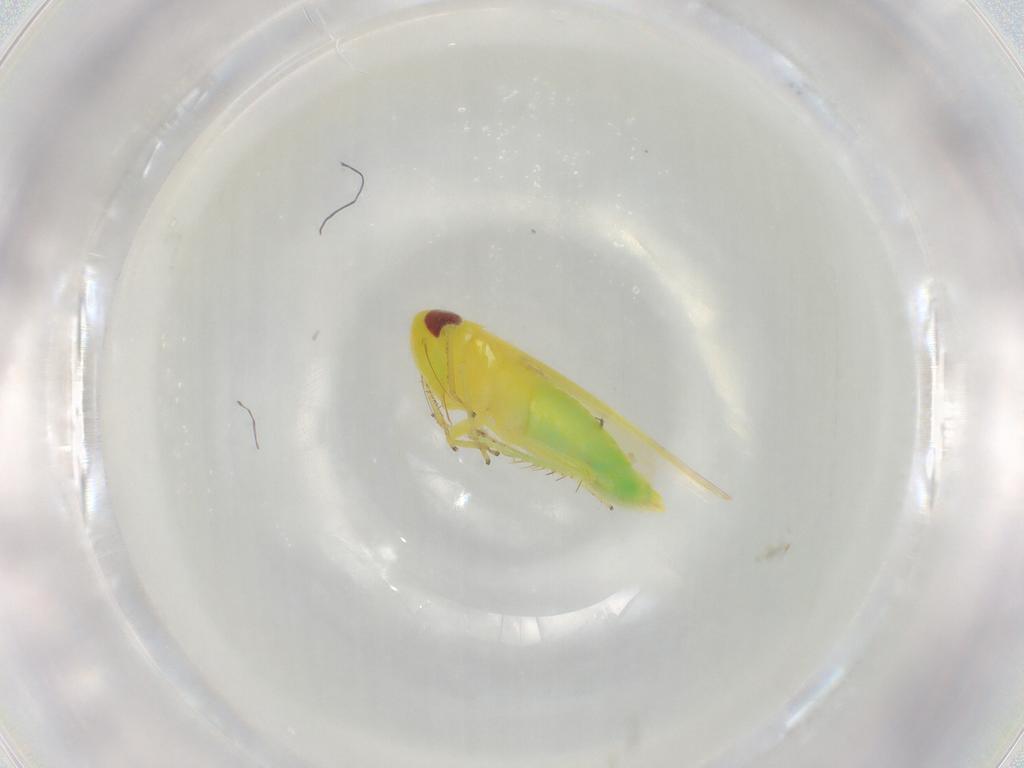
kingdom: Animalia
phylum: Arthropoda
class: Insecta
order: Hemiptera
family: Cicadellidae
